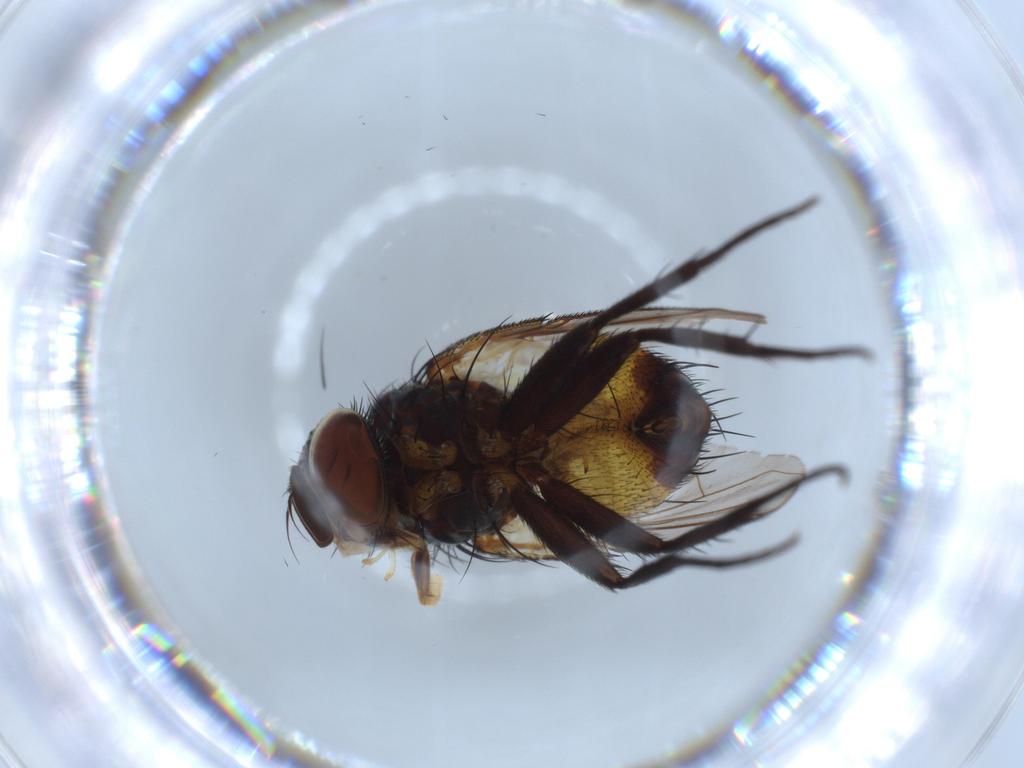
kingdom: Animalia
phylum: Arthropoda
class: Insecta
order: Diptera
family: Tachinidae
